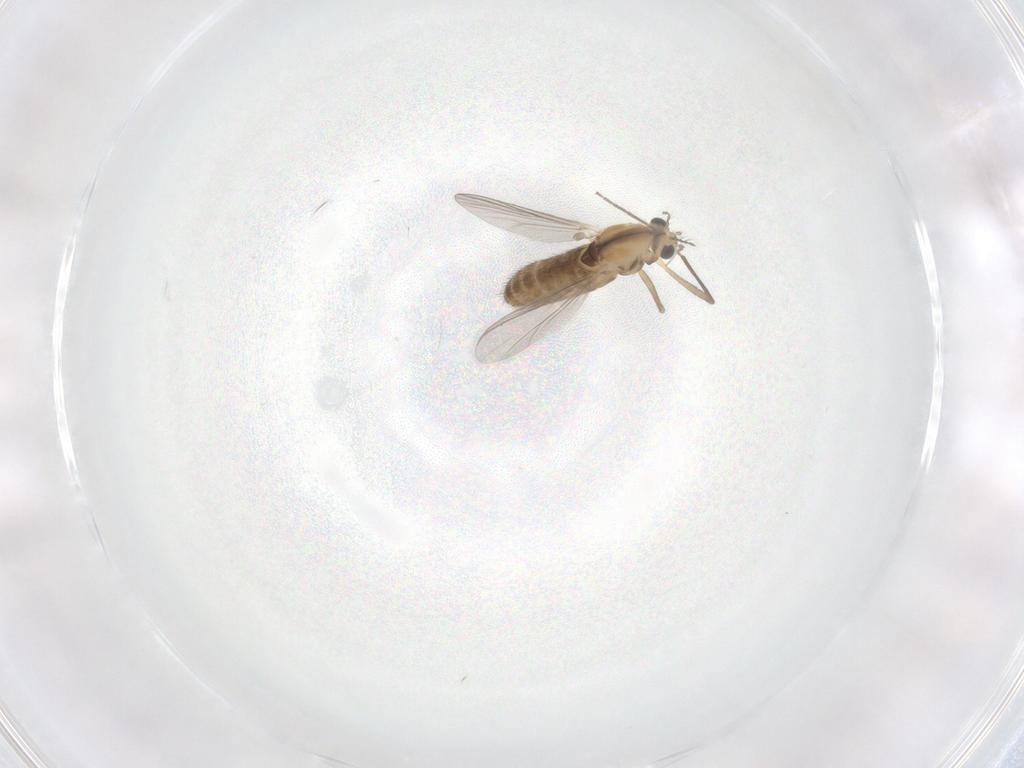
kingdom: Animalia
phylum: Arthropoda
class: Insecta
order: Diptera
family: Chironomidae
